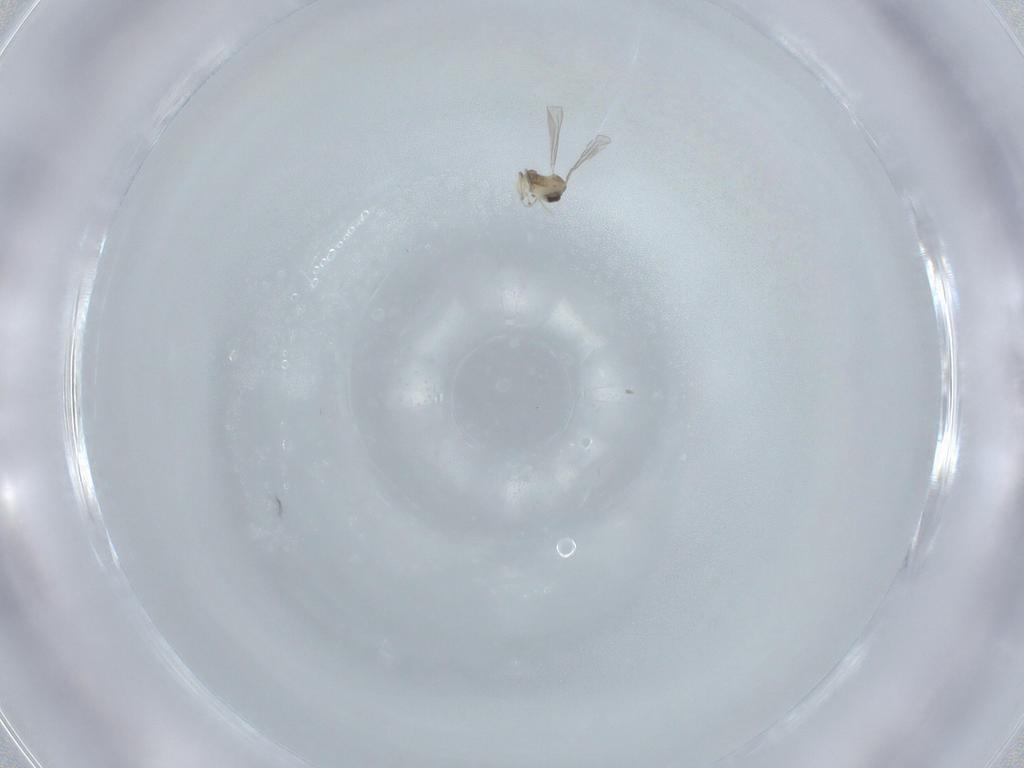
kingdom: Animalia
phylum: Arthropoda
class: Insecta
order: Diptera
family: Cecidomyiidae
